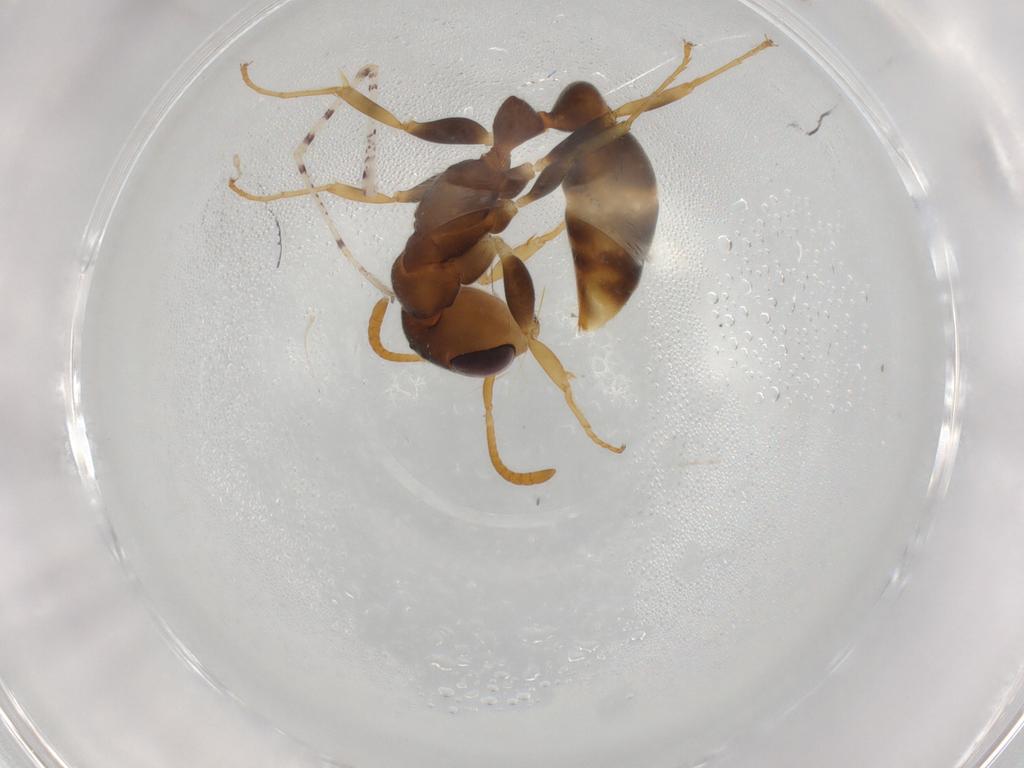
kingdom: Animalia
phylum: Arthropoda
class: Insecta
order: Hymenoptera
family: Formicidae
